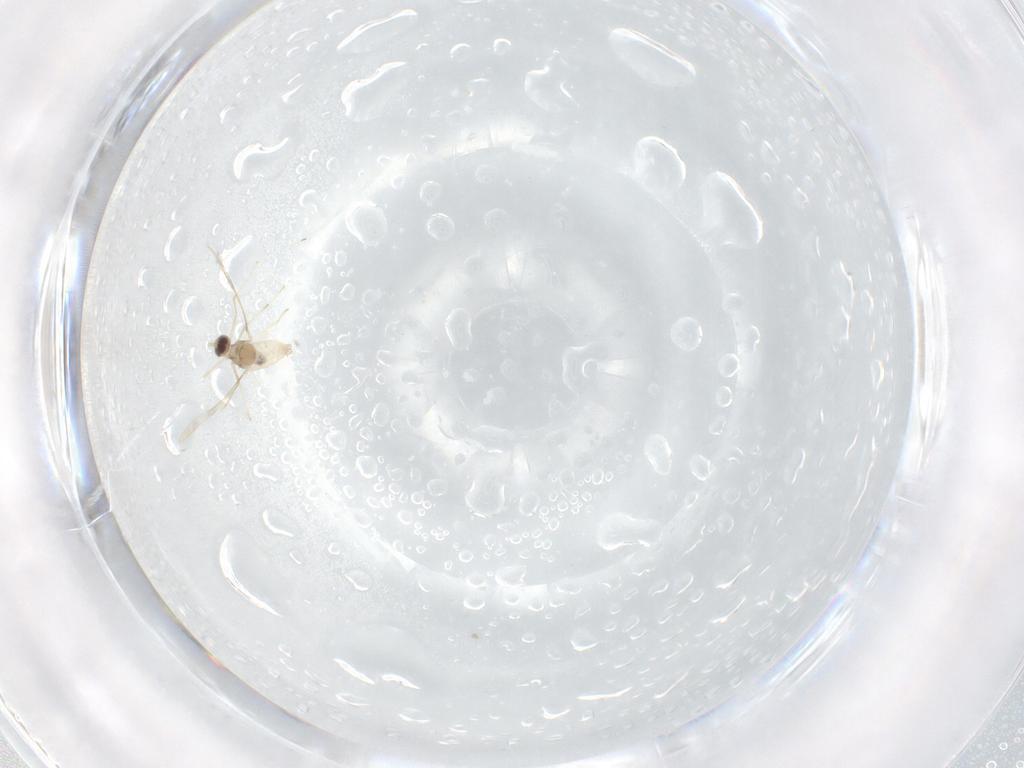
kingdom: Animalia
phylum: Arthropoda
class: Insecta
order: Diptera
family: Cecidomyiidae
